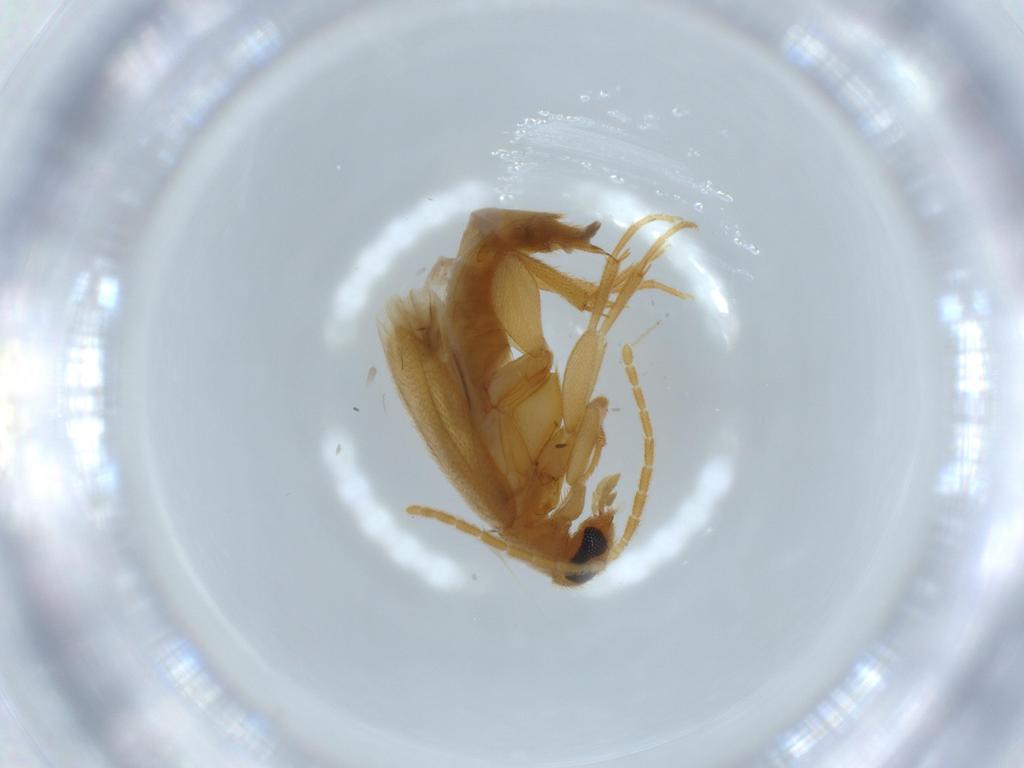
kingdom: Animalia
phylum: Arthropoda
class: Insecta
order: Coleoptera
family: Scraptiidae
